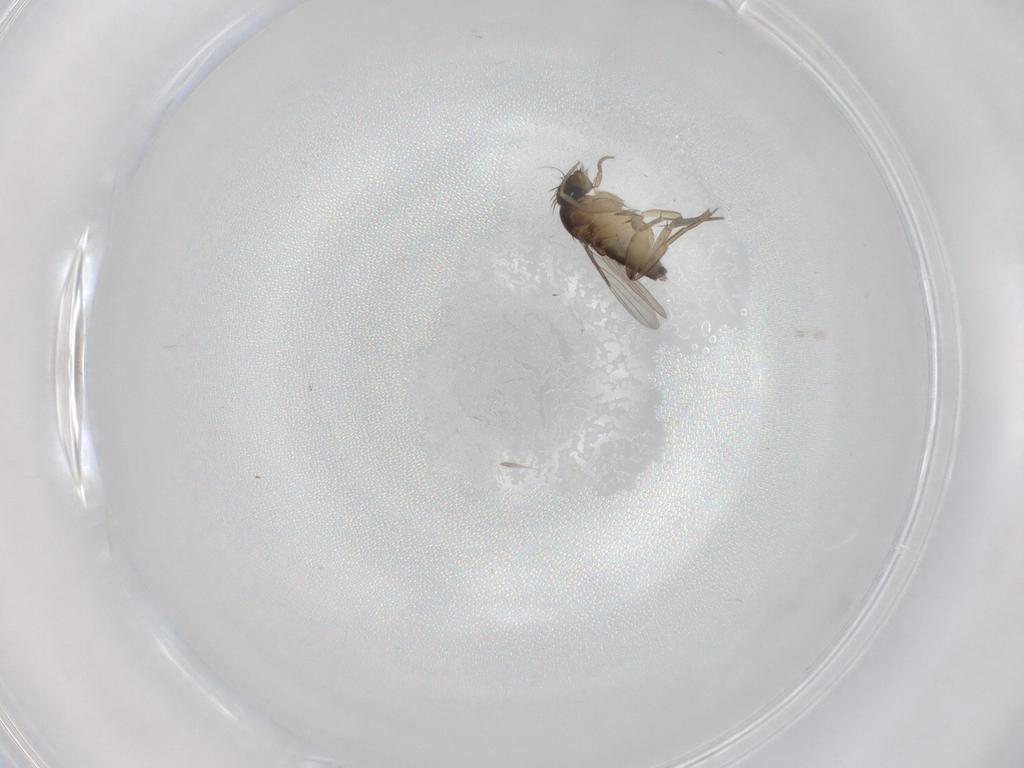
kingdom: Animalia
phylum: Arthropoda
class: Insecta
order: Diptera
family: Phoridae
